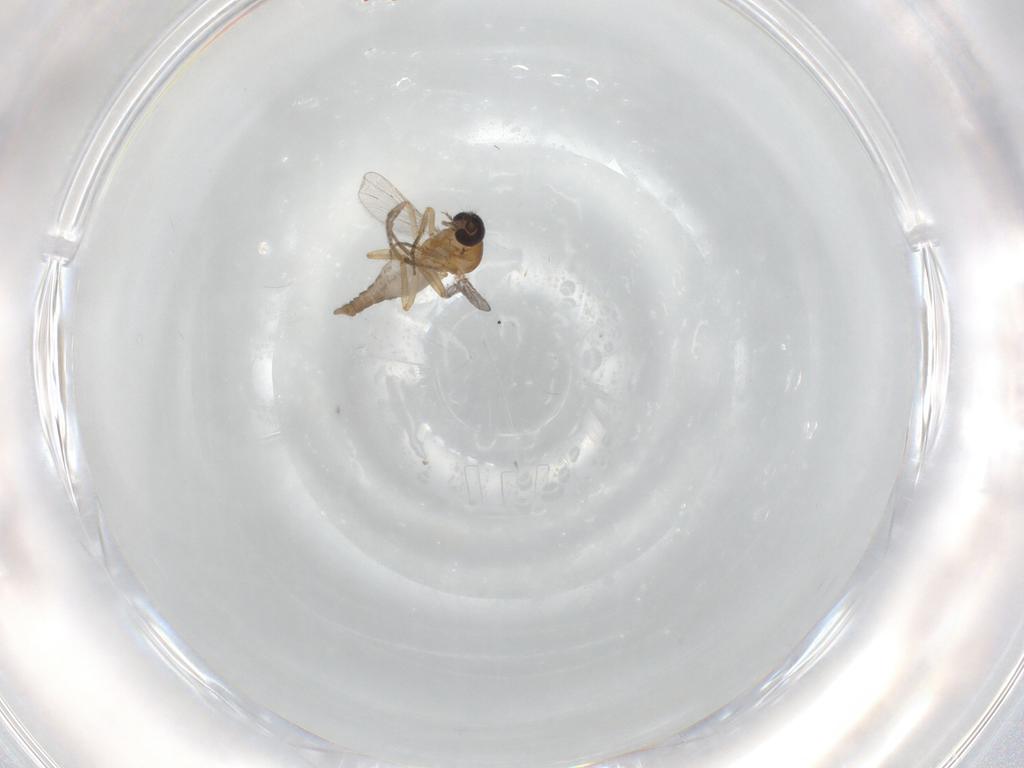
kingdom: Animalia
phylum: Arthropoda
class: Insecta
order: Diptera
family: Ceratopogonidae
